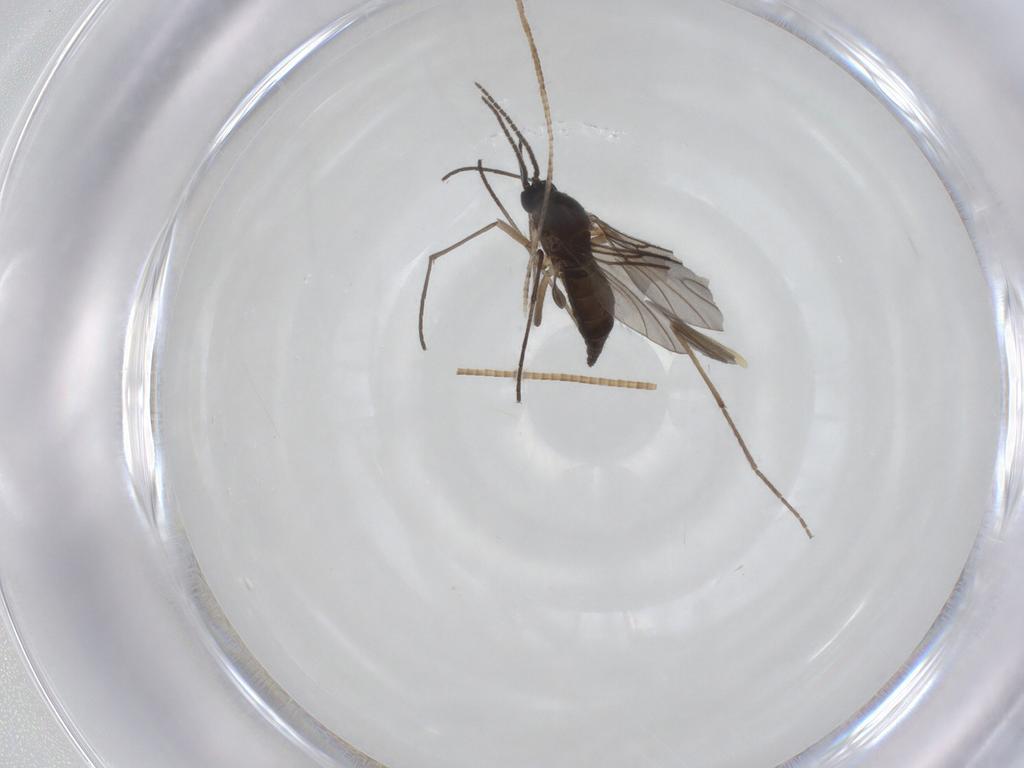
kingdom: Animalia
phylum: Arthropoda
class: Insecta
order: Diptera
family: Sciaridae
